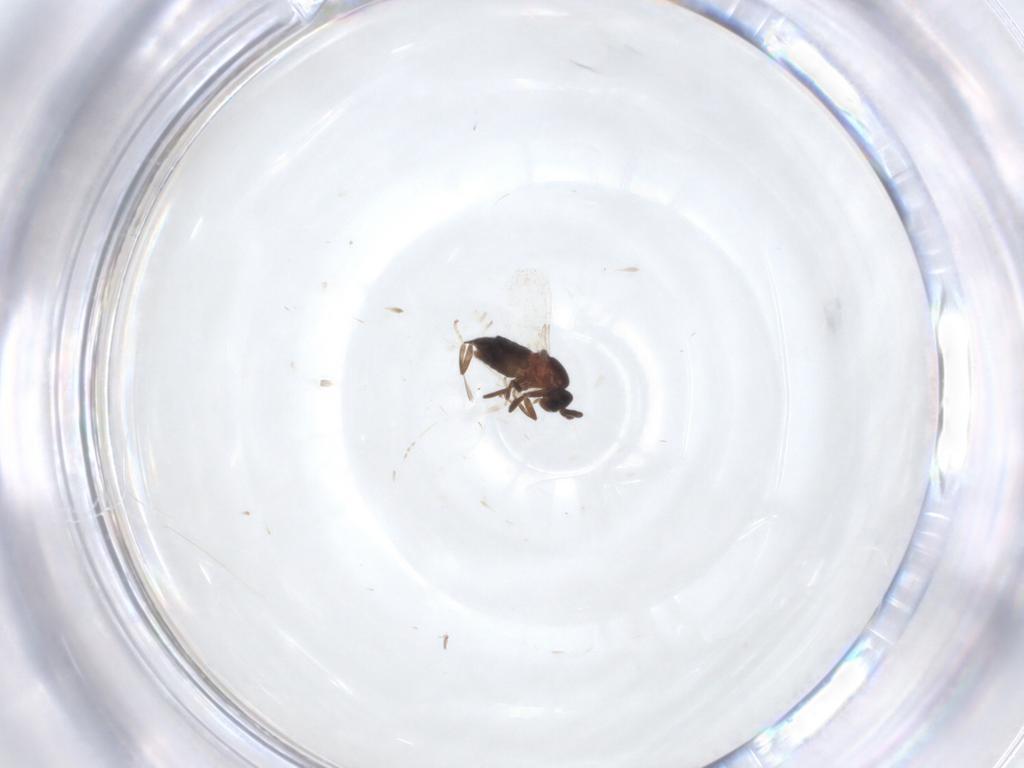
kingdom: Animalia
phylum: Arthropoda
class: Insecta
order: Diptera
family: Scatopsidae
